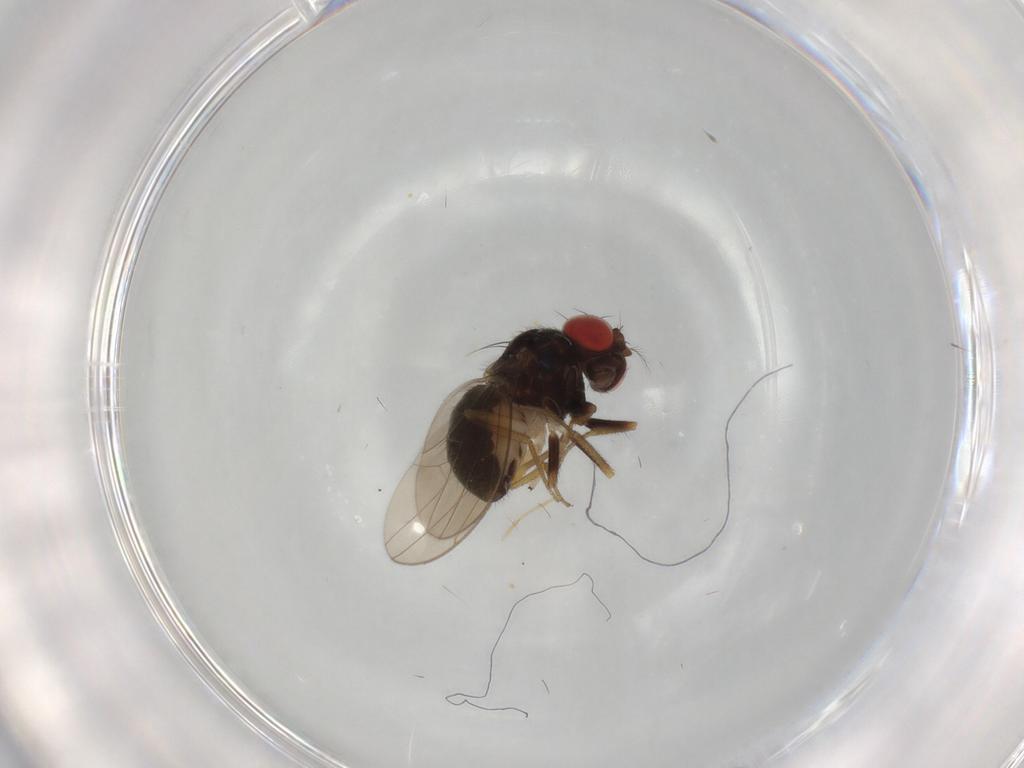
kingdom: Animalia
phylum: Arthropoda
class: Insecta
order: Diptera
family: Drosophilidae
